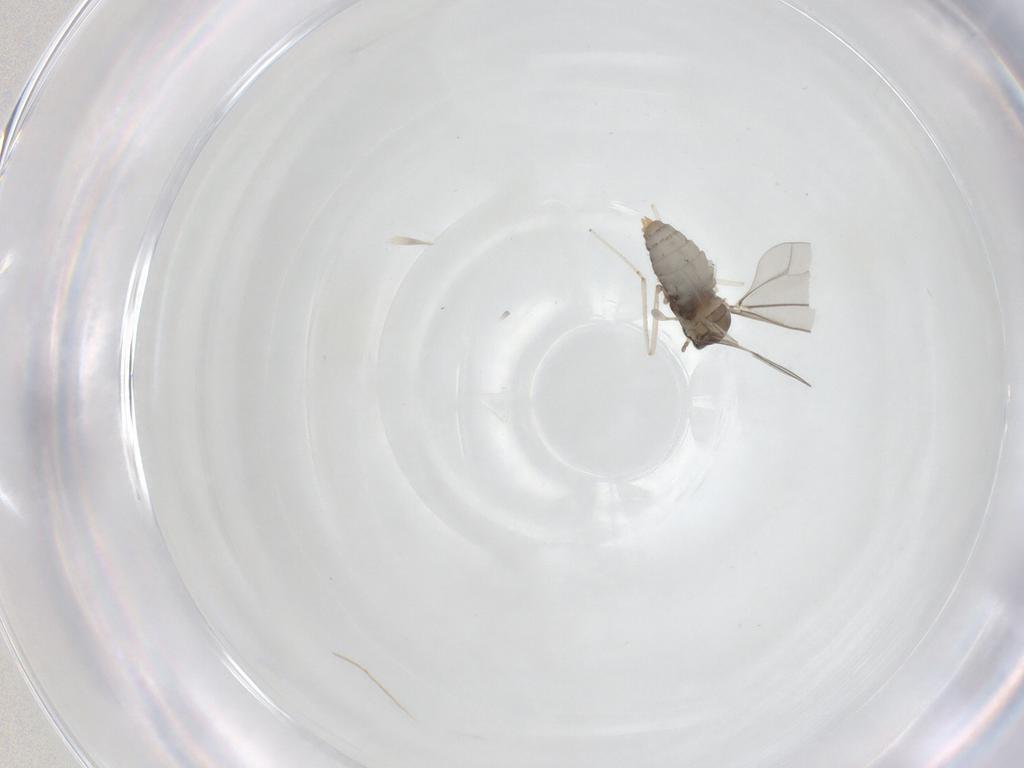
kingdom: Animalia
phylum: Arthropoda
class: Insecta
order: Diptera
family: Cecidomyiidae
